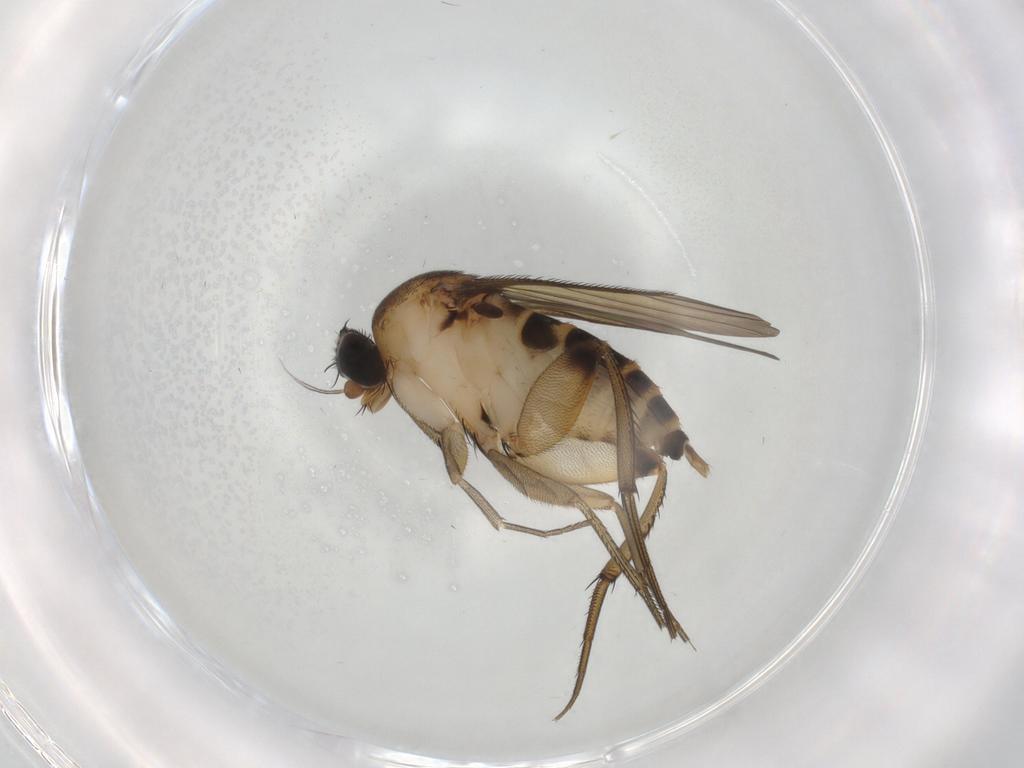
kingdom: Animalia
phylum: Arthropoda
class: Insecta
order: Diptera
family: Phoridae
